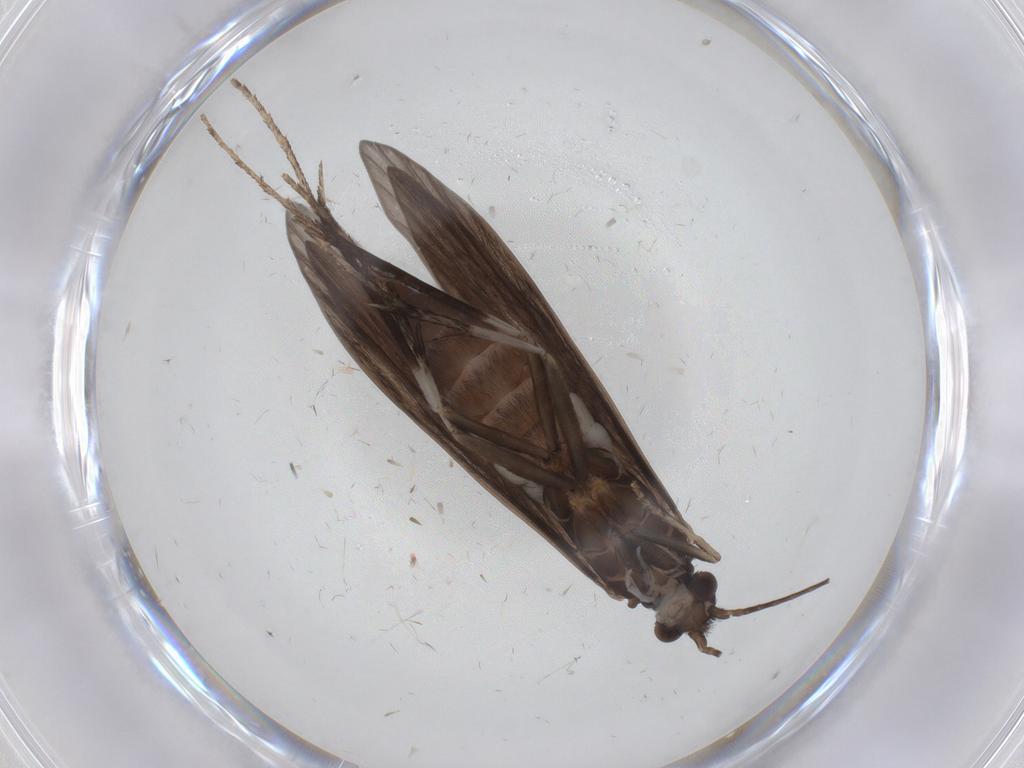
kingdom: Animalia
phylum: Arthropoda
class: Insecta
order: Trichoptera
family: Xiphocentronidae
